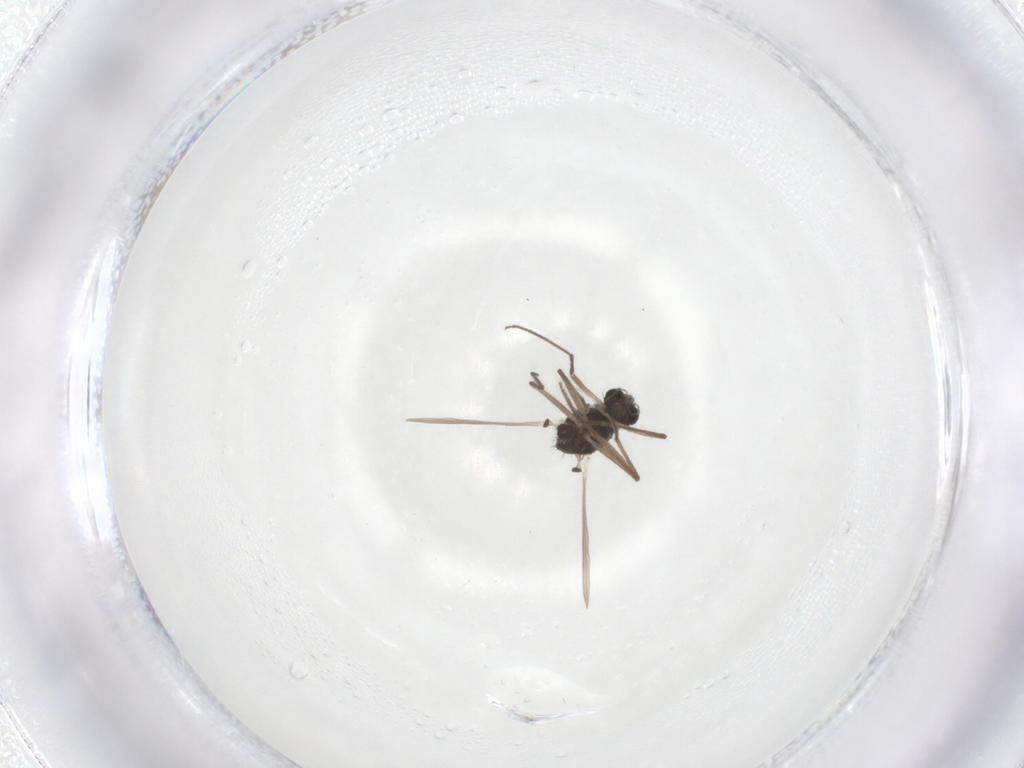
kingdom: Animalia
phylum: Arthropoda
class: Insecta
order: Diptera
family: Chironomidae
